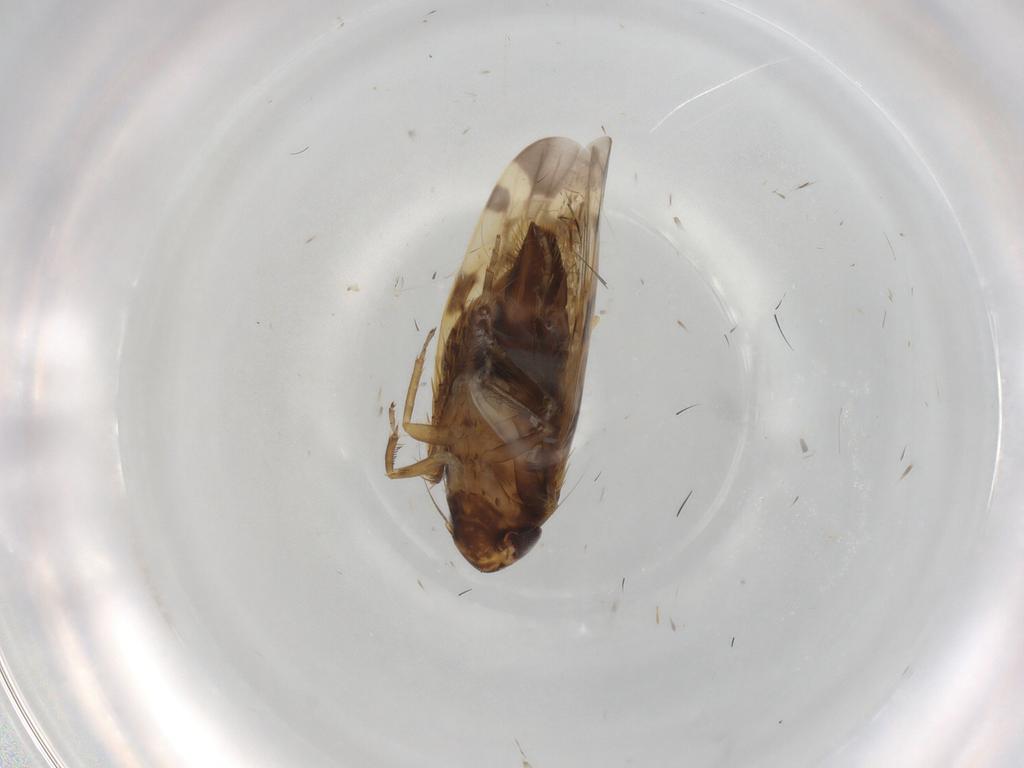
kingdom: Animalia
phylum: Arthropoda
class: Insecta
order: Hemiptera
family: Cicadellidae
